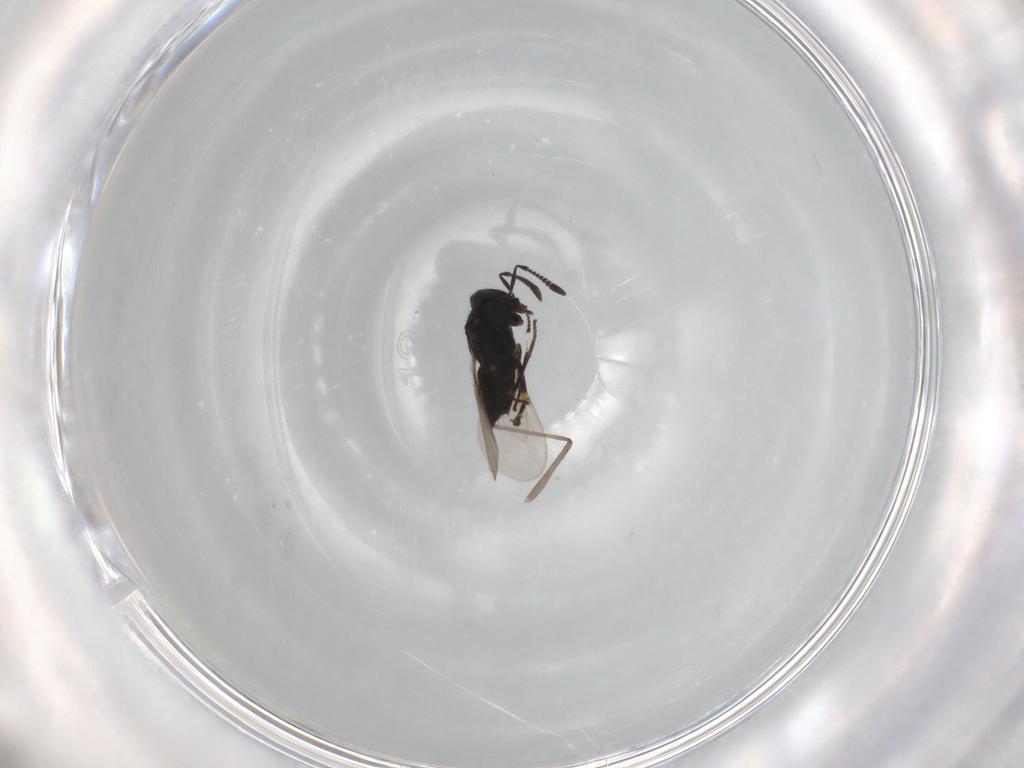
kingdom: Animalia
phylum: Arthropoda
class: Insecta
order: Hymenoptera
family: Encyrtidae
